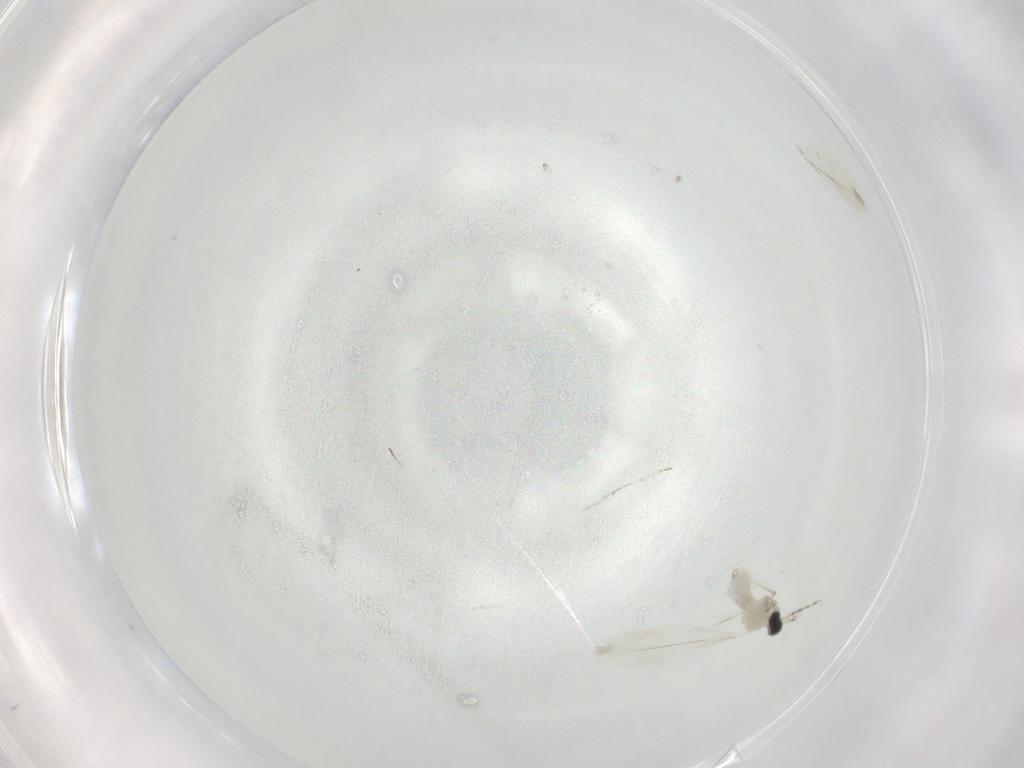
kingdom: Animalia
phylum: Arthropoda
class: Insecta
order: Diptera
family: Cecidomyiidae
